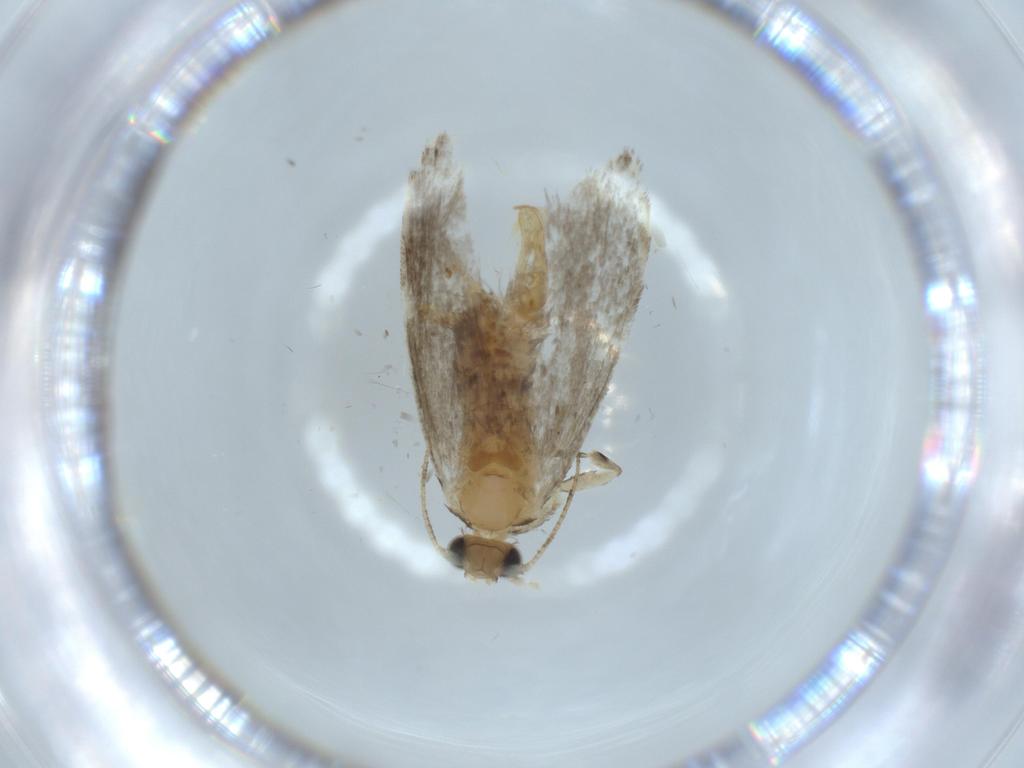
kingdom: Animalia
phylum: Arthropoda
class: Insecta
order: Lepidoptera
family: Tineidae
